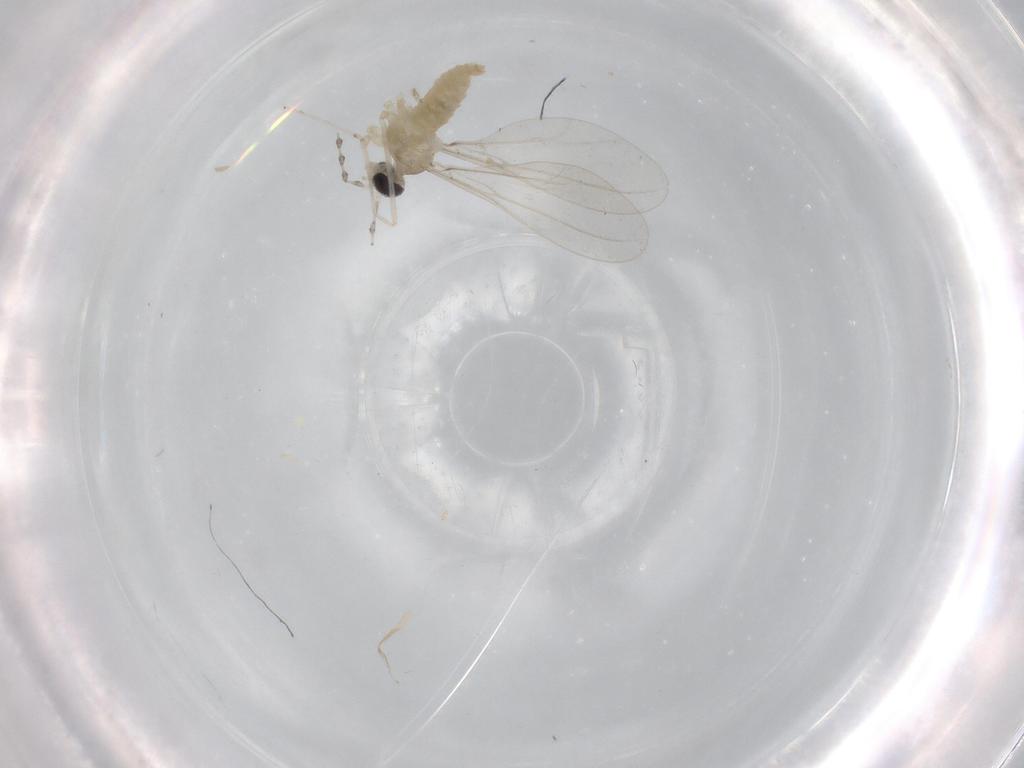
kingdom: Animalia
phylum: Arthropoda
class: Insecta
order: Diptera
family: Cecidomyiidae
